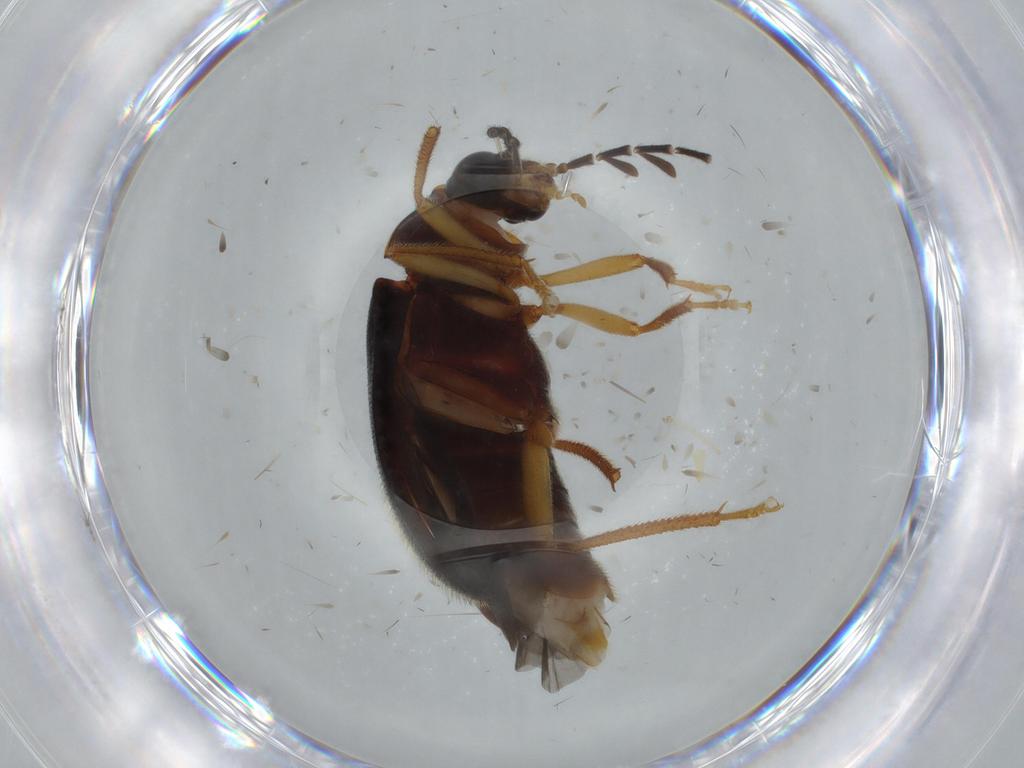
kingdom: Animalia
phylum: Arthropoda
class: Insecta
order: Coleoptera
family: Ptilodactylidae
